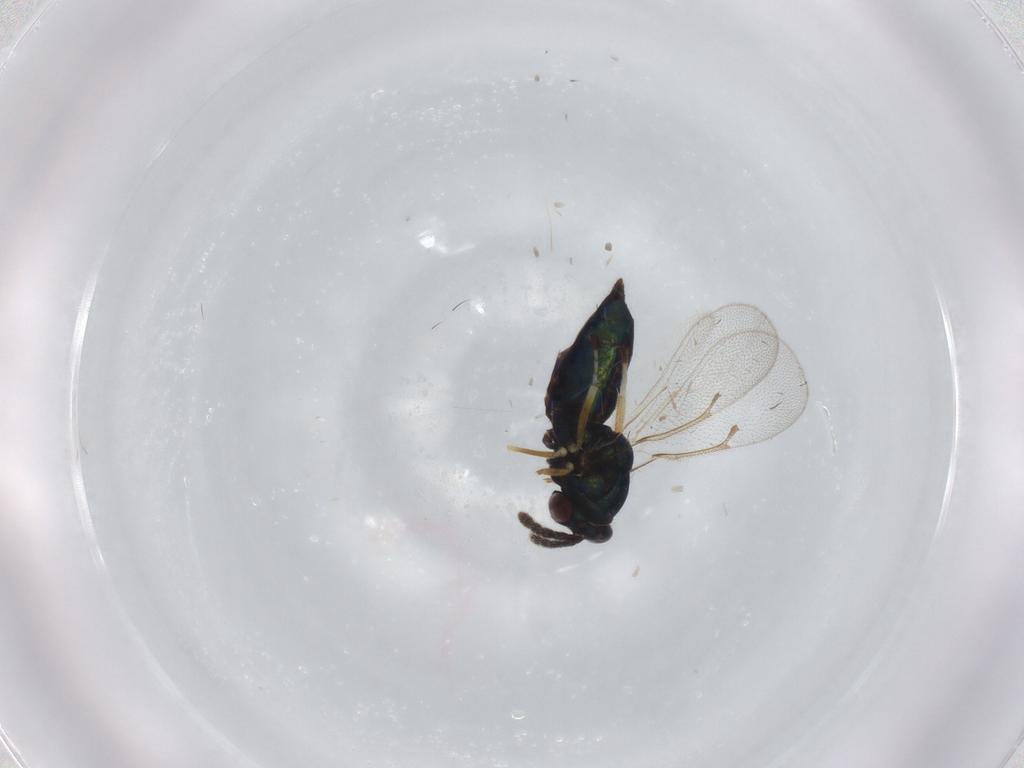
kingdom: Animalia
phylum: Arthropoda
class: Insecta
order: Hymenoptera
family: Eulophidae
